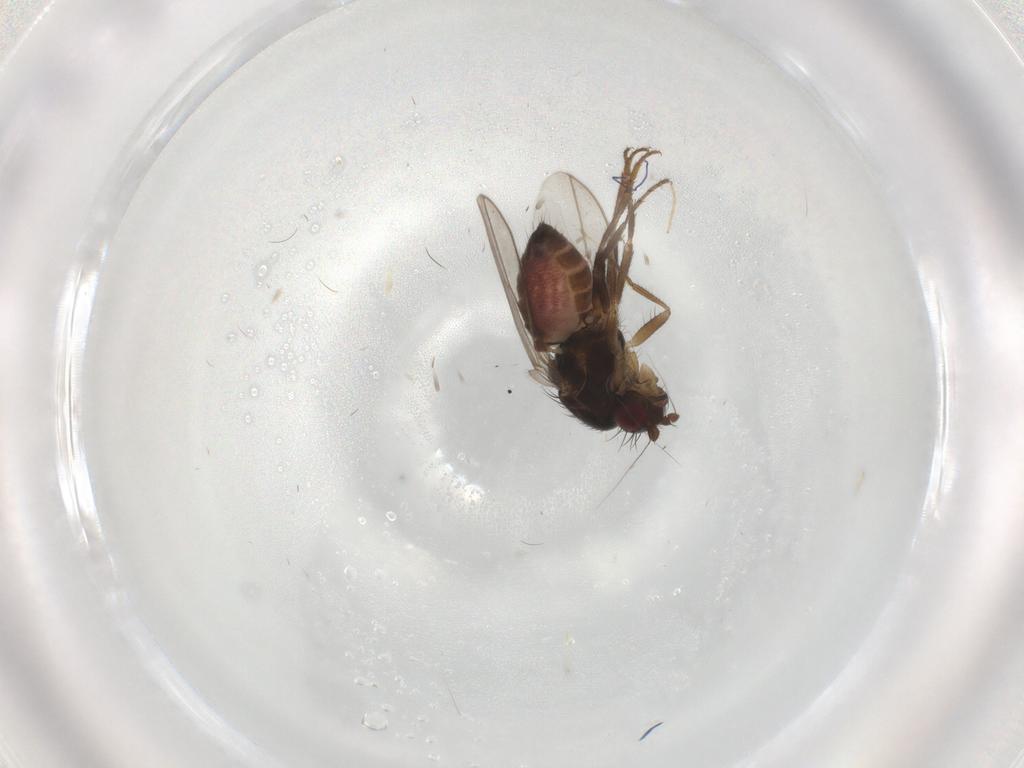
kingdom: Animalia
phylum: Arthropoda
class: Insecta
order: Diptera
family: Sphaeroceridae
